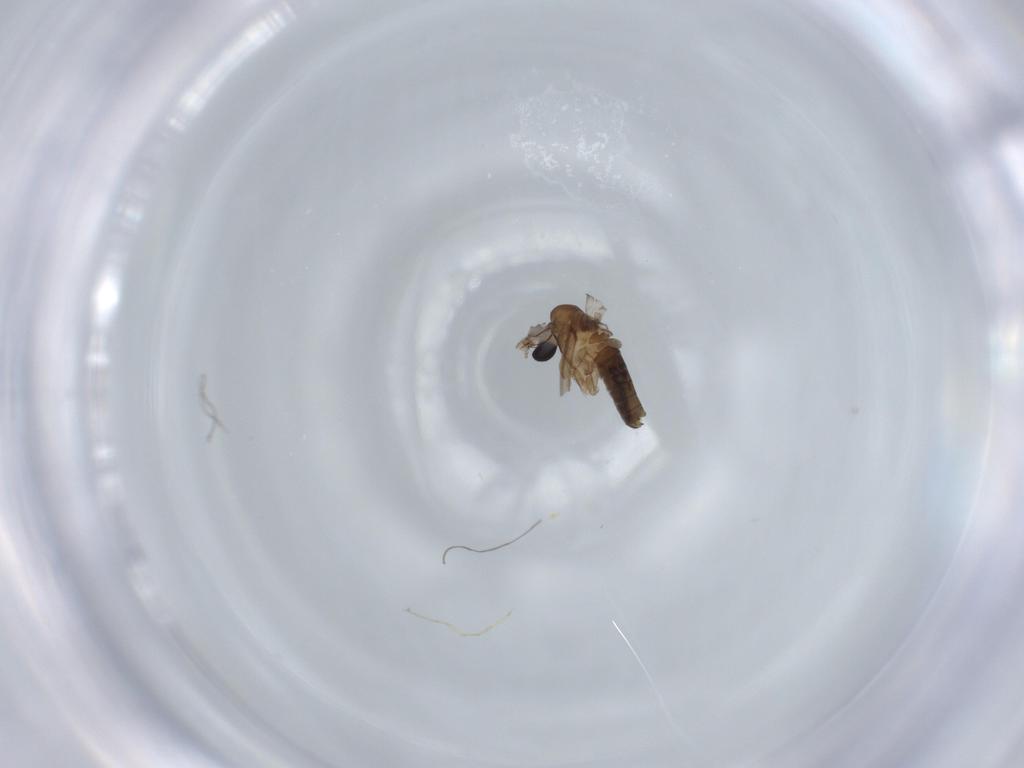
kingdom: Animalia
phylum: Arthropoda
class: Insecta
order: Diptera
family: Psychodidae
